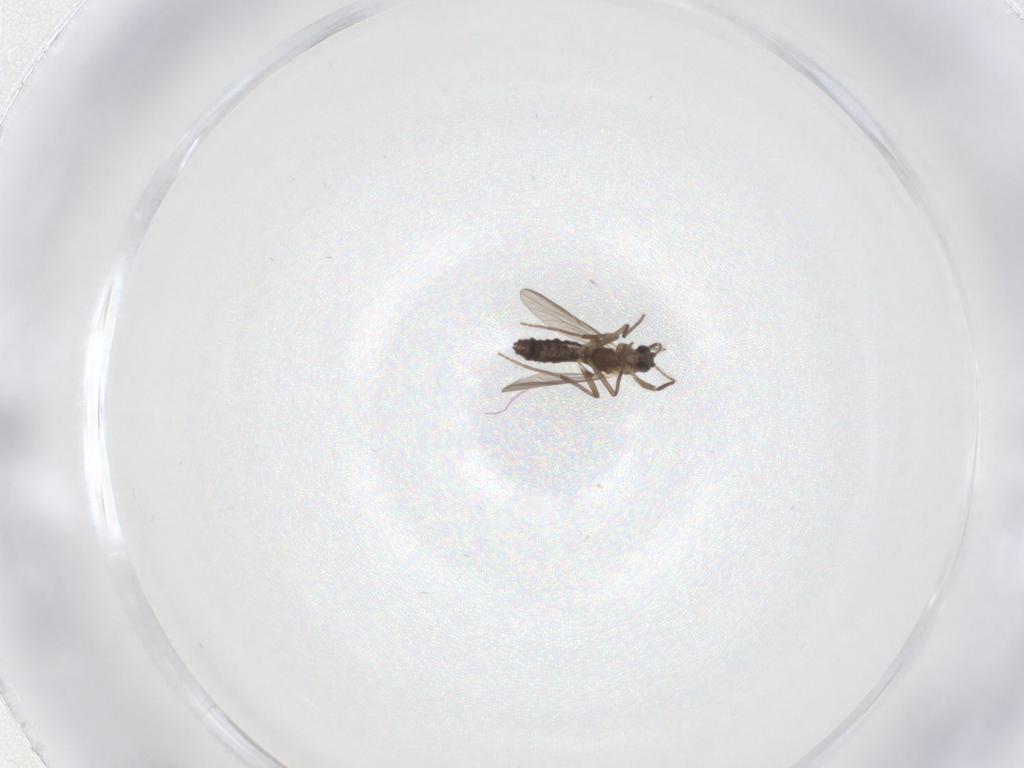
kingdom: Animalia
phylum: Arthropoda
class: Insecta
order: Diptera
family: Chironomidae
